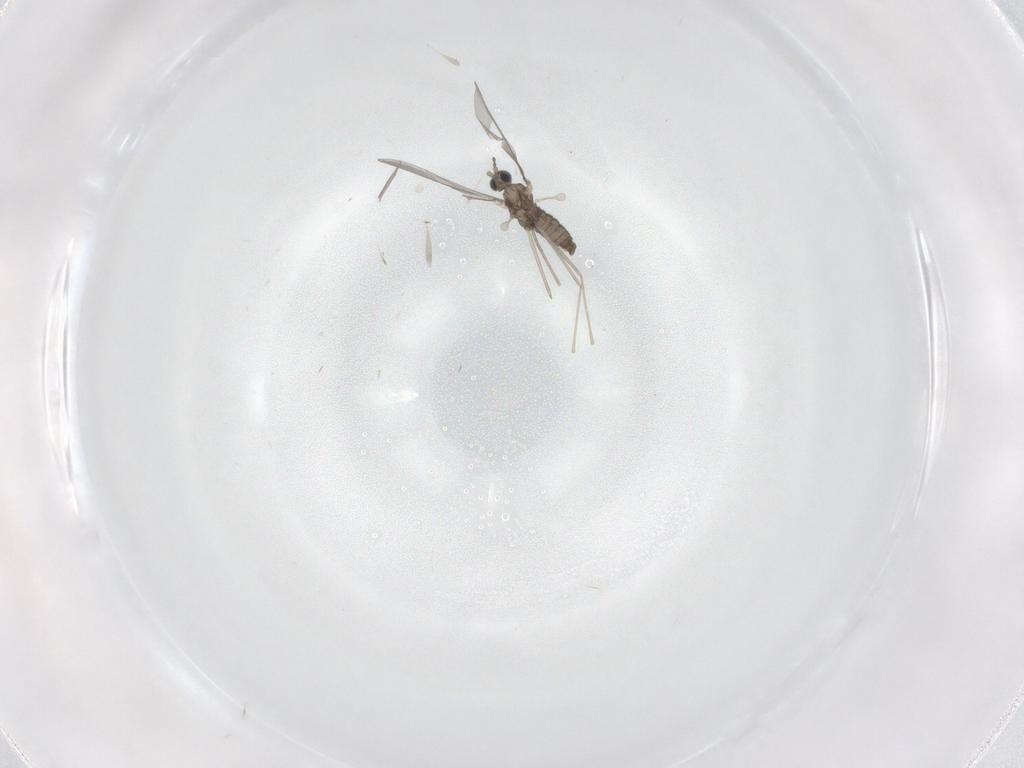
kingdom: Animalia
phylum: Arthropoda
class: Insecta
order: Diptera
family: Cecidomyiidae
